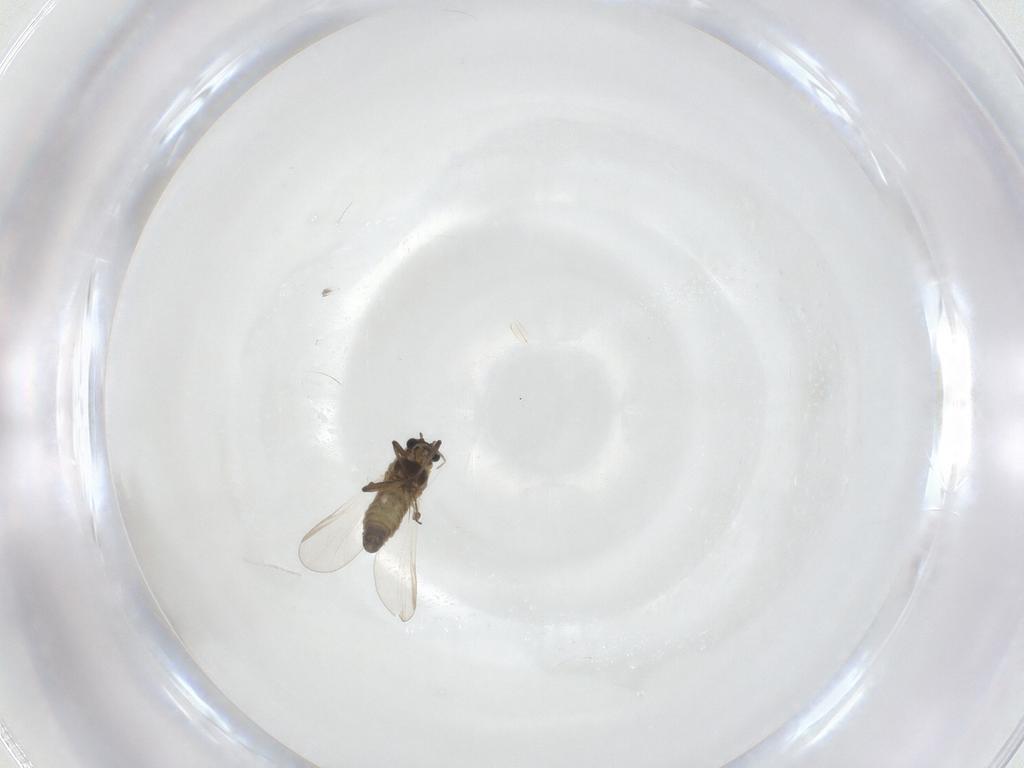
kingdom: Animalia
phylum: Arthropoda
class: Insecta
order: Diptera
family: Chironomidae
